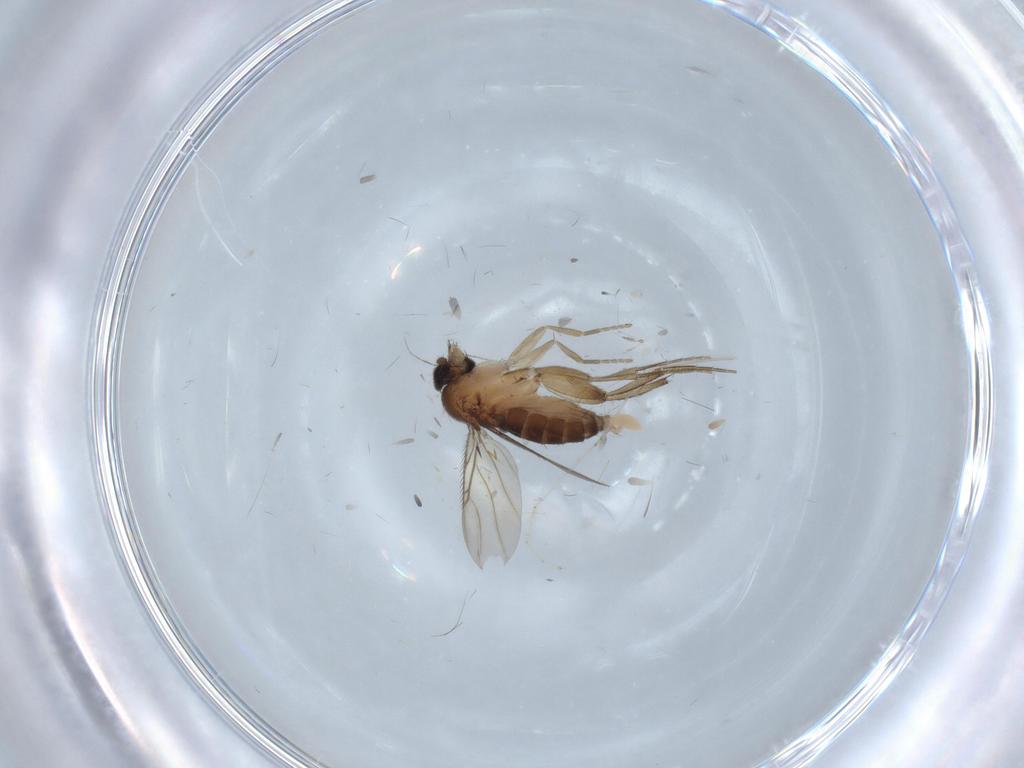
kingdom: Animalia
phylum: Arthropoda
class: Insecta
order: Diptera
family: Phoridae
